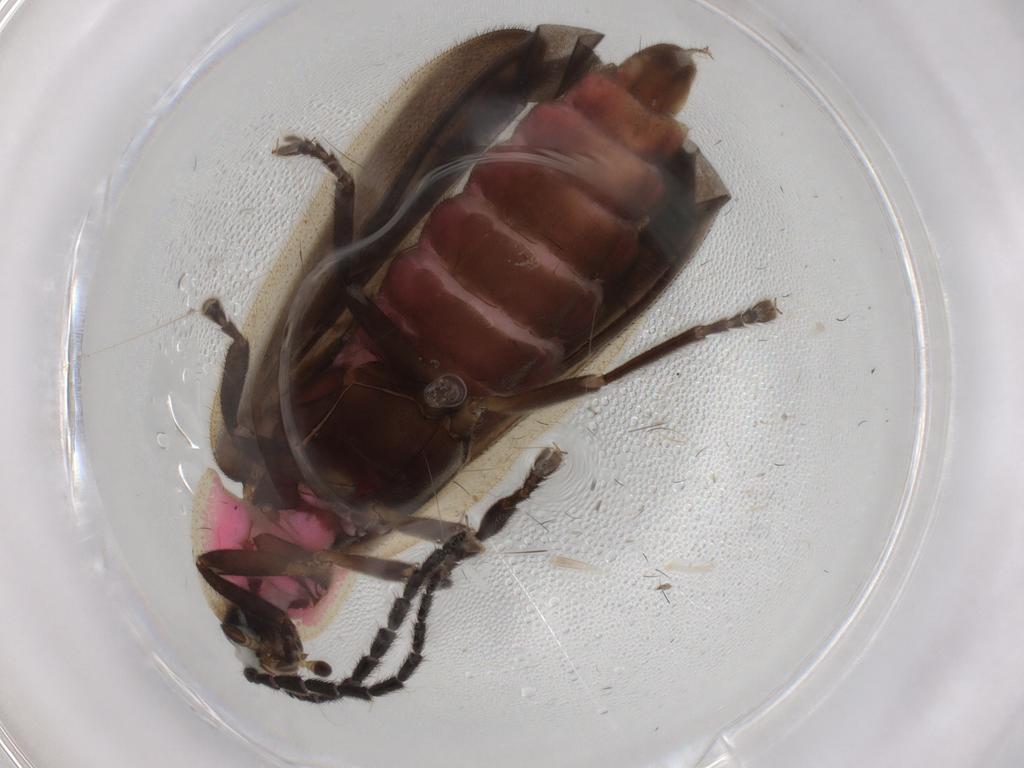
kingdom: Animalia
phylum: Arthropoda
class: Insecta
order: Coleoptera
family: Lampyridae
